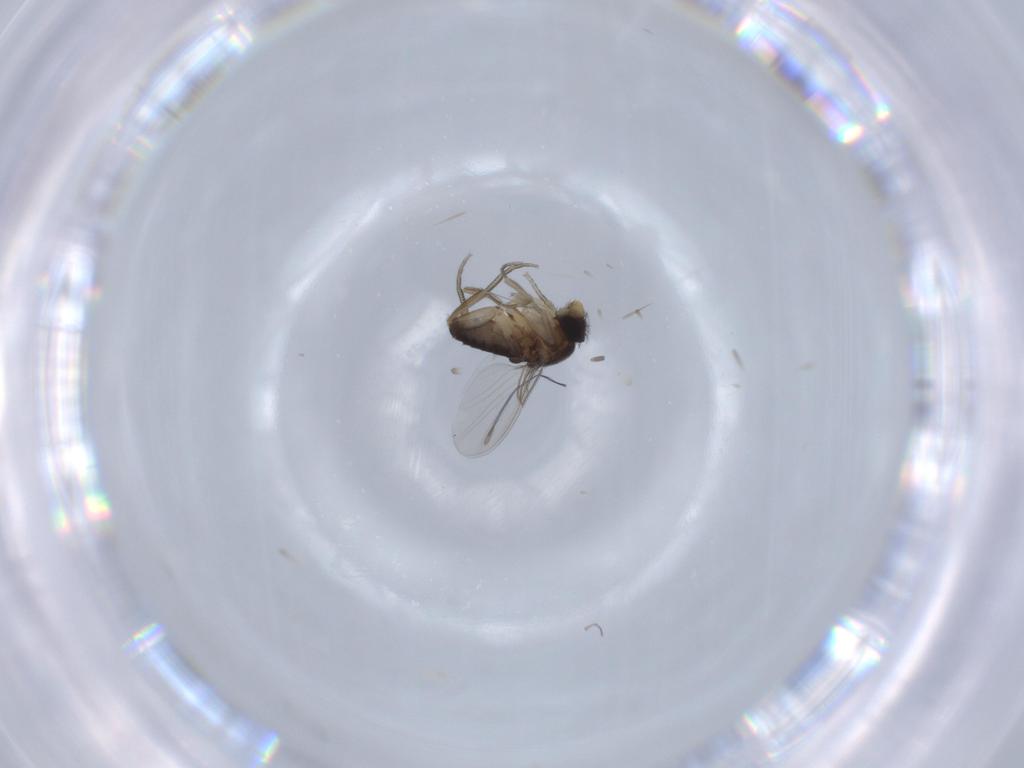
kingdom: Animalia
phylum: Arthropoda
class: Insecta
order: Diptera
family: Phoridae
